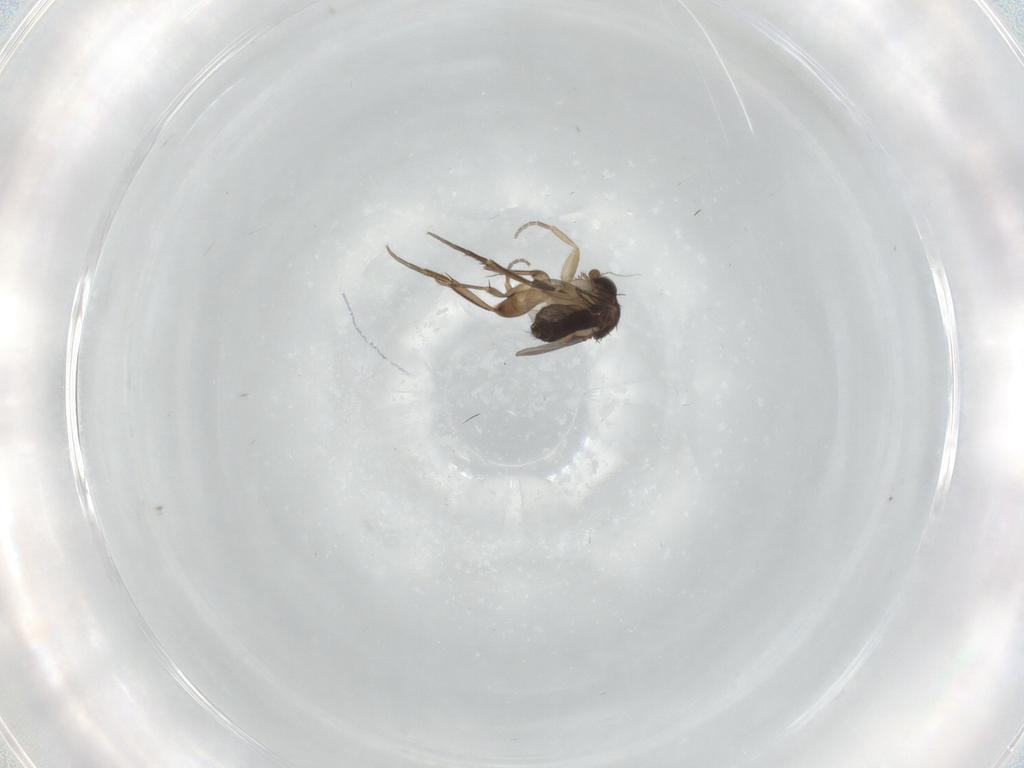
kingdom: Animalia
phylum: Arthropoda
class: Insecta
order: Diptera
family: Phoridae
